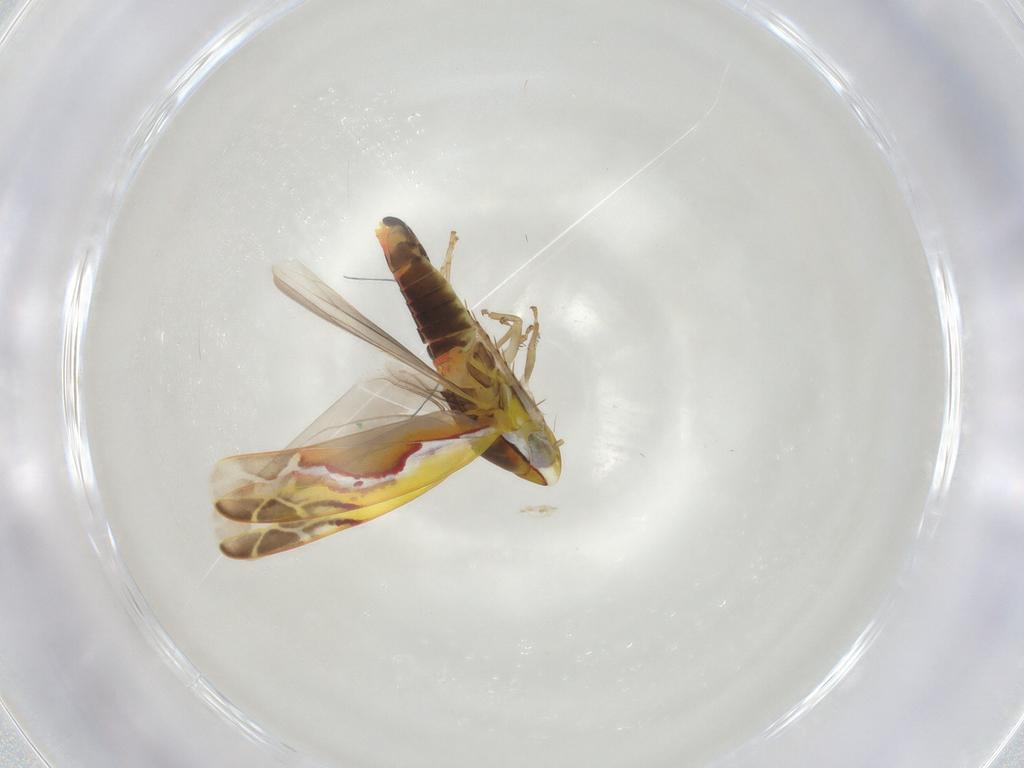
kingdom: Animalia
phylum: Arthropoda
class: Insecta
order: Hemiptera
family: Cicadellidae
